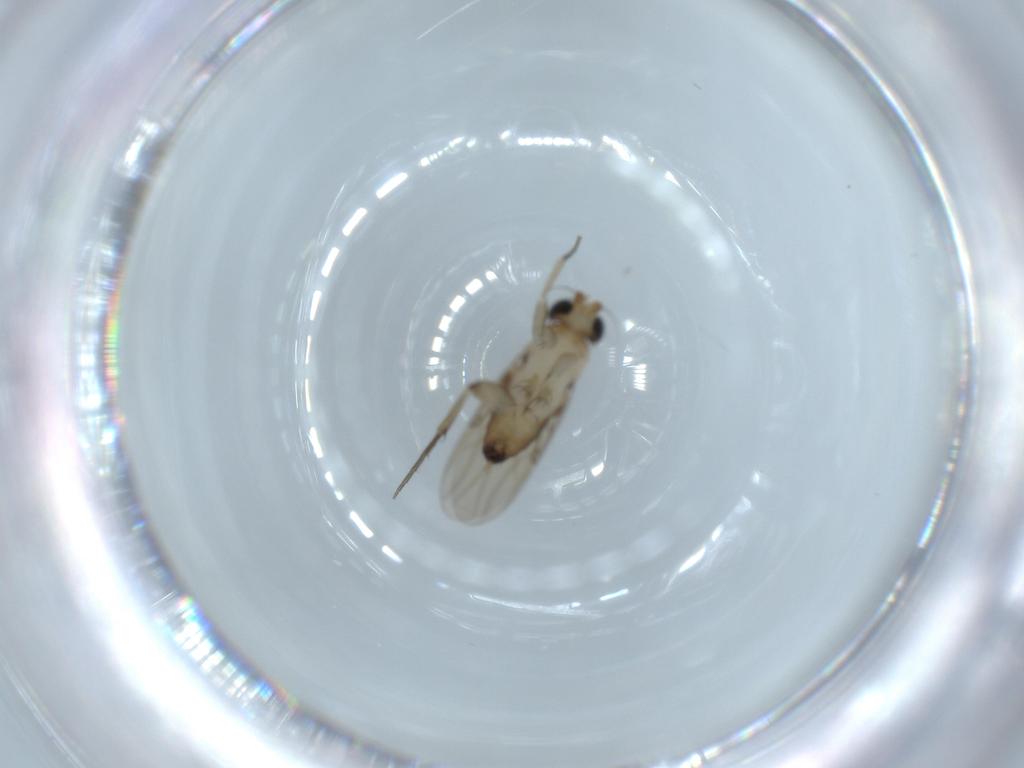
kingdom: Animalia
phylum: Arthropoda
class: Insecta
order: Diptera
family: Phoridae
